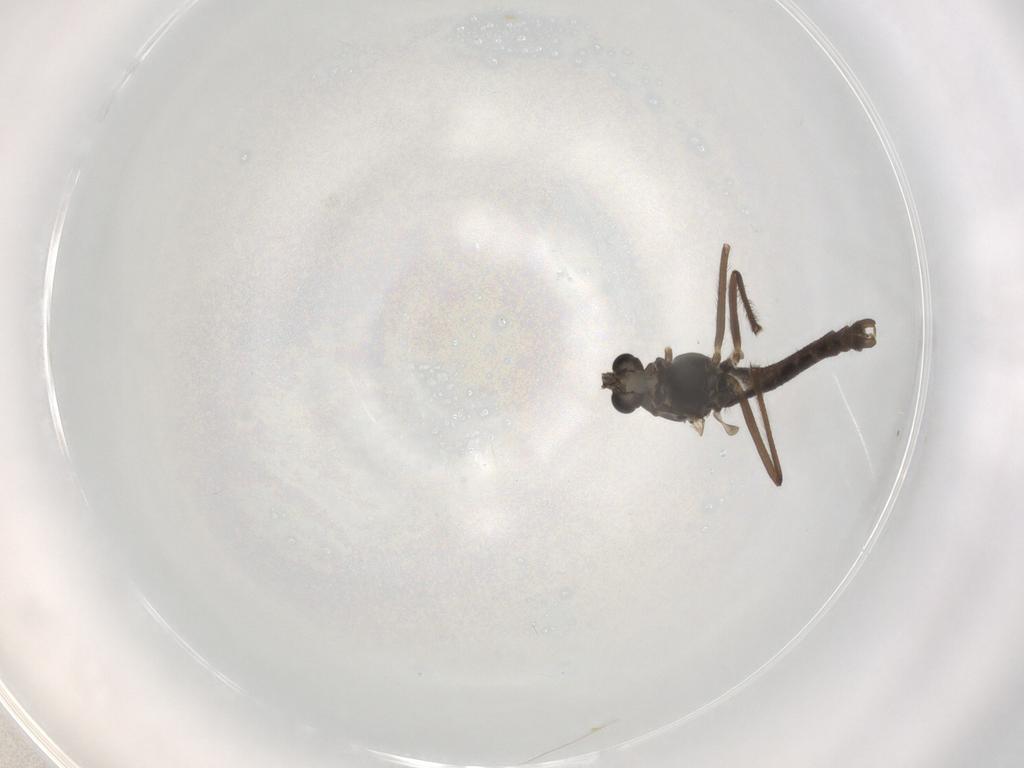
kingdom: Animalia
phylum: Arthropoda
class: Insecta
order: Diptera
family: Chironomidae
